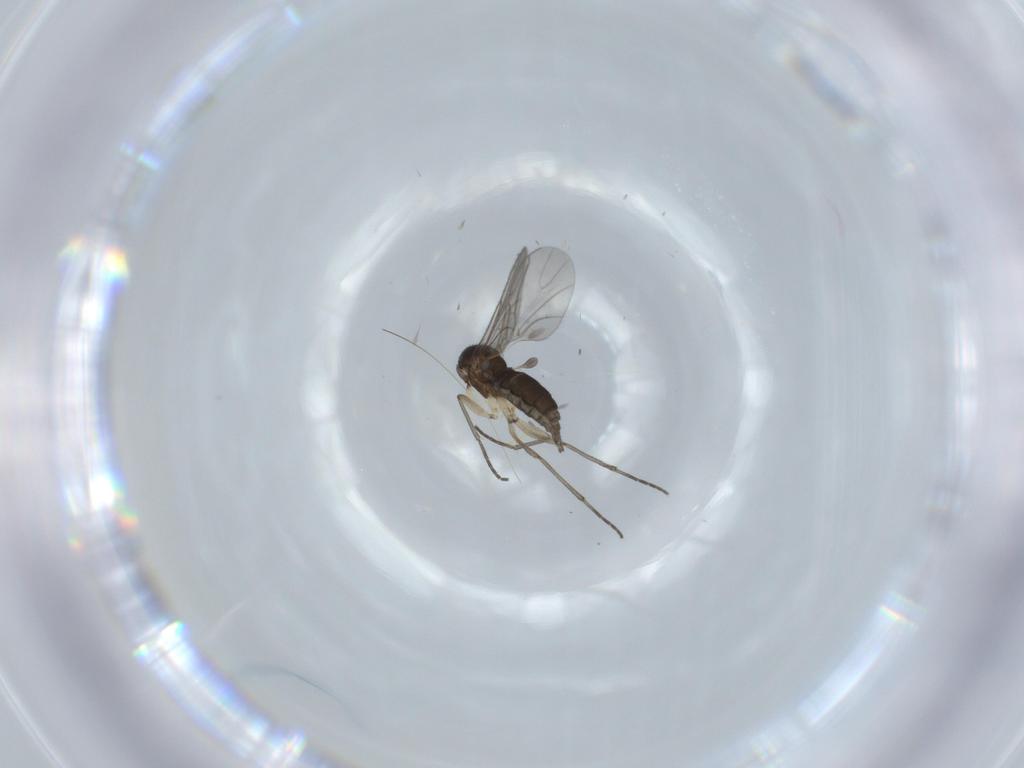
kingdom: Animalia
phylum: Arthropoda
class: Insecta
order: Diptera
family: Sciaridae
